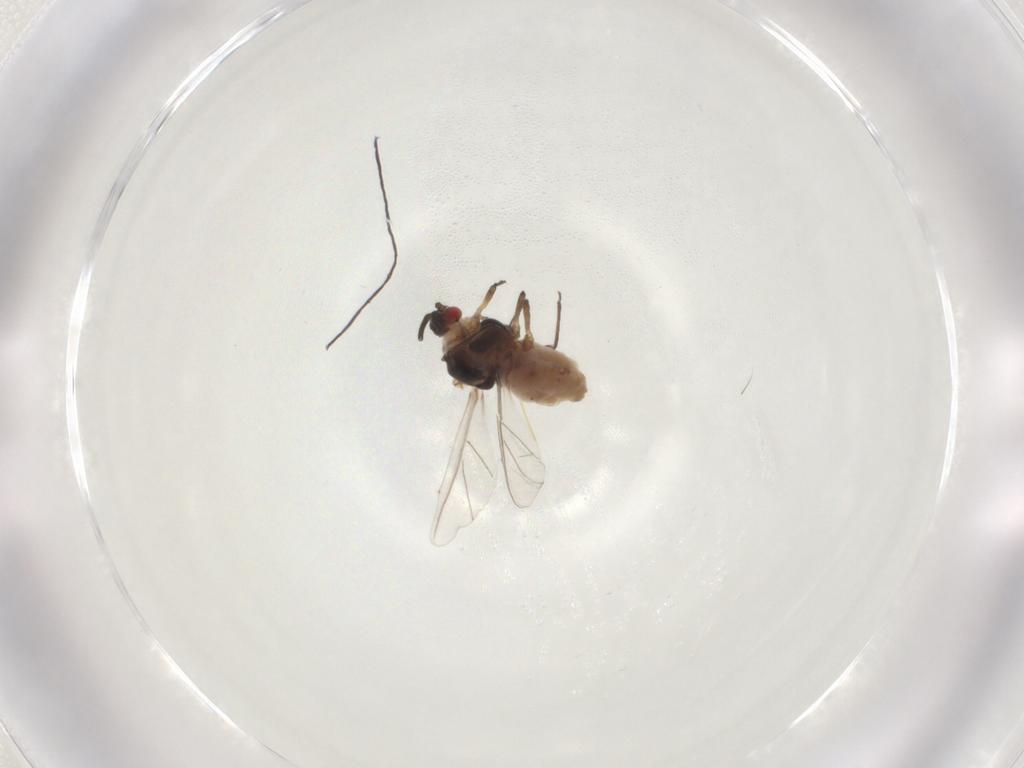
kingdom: Animalia
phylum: Arthropoda
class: Insecta
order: Hemiptera
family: Aphididae
